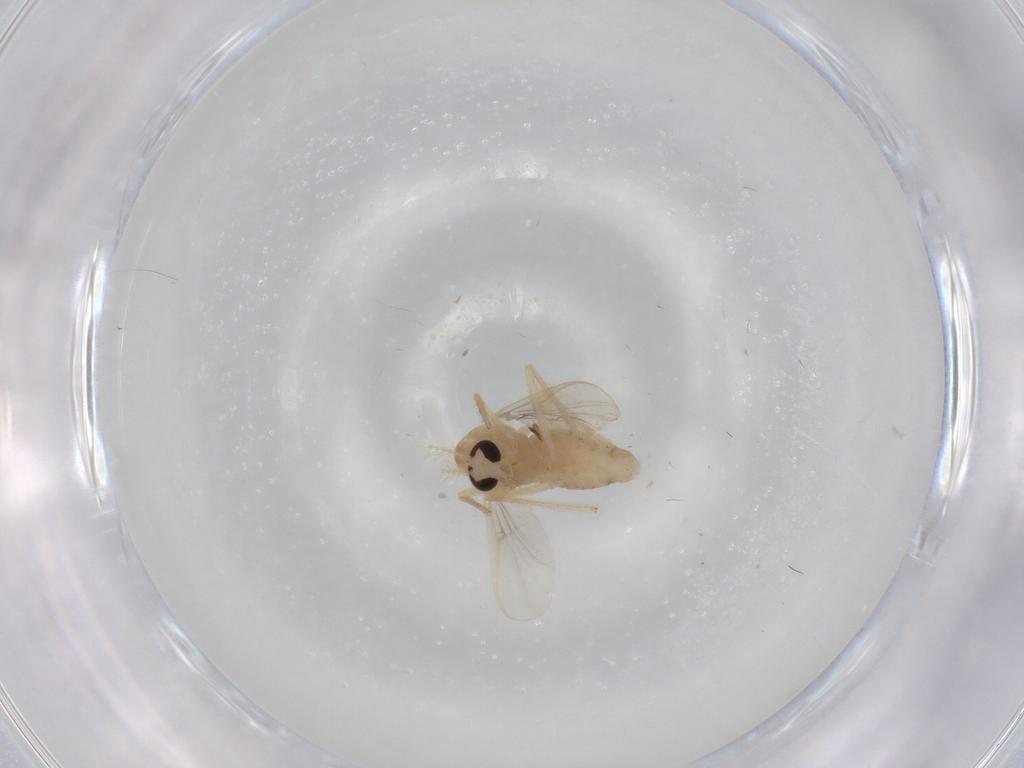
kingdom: Animalia
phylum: Arthropoda
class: Insecta
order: Diptera
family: Chironomidae
